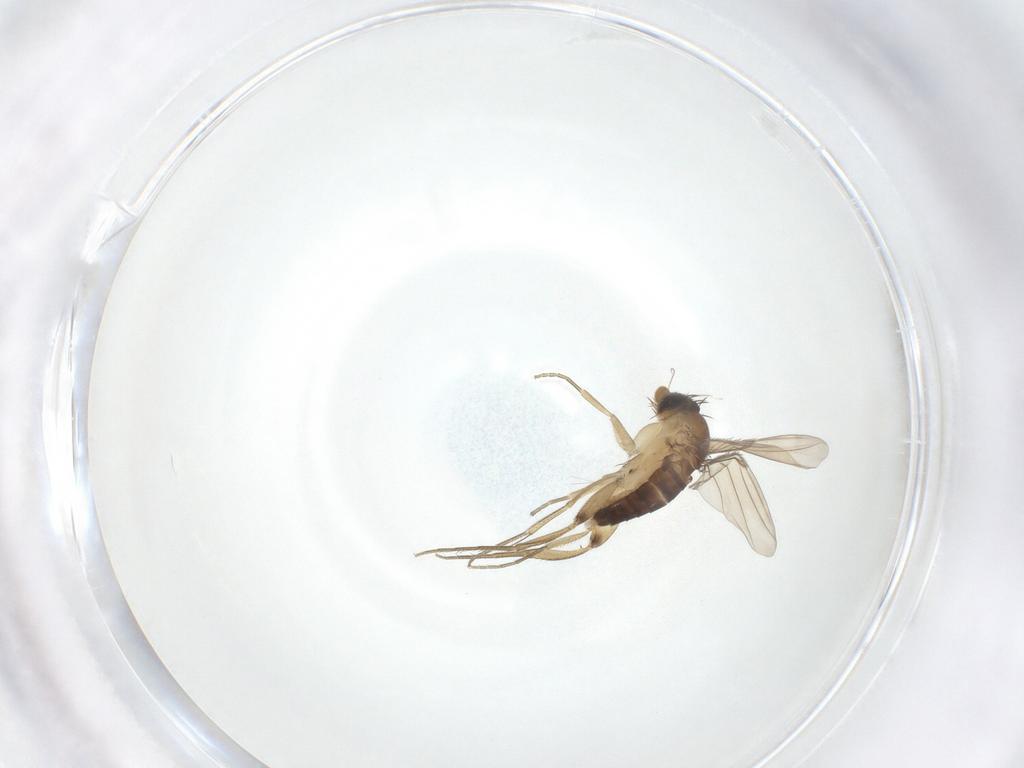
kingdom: Animalia
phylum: Arthropoda
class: Insecta
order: Diptera
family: Phoridae
